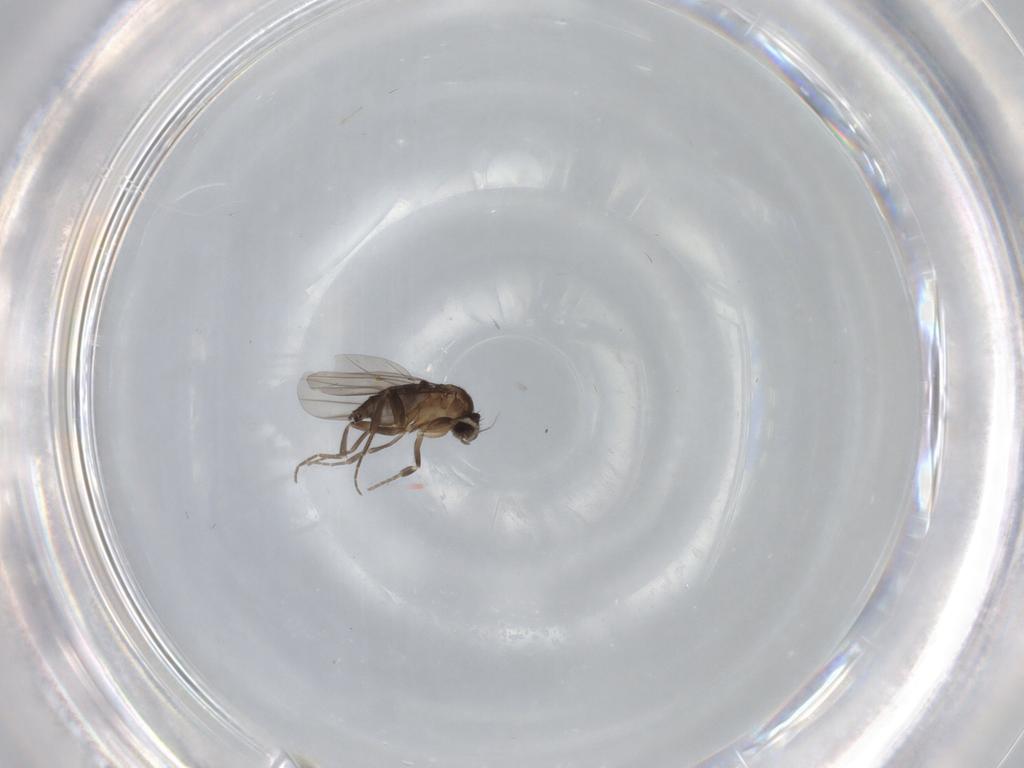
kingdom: Animalia
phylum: Arthropoda
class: Insecta
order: Diptera
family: Phoridae
